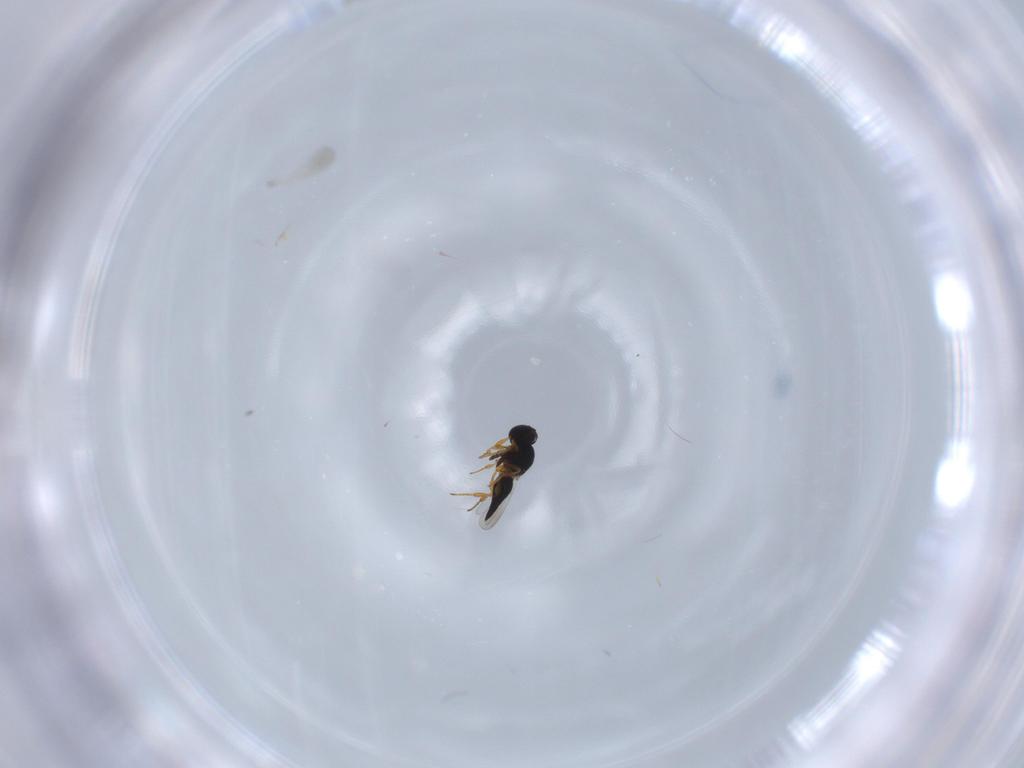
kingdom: Animalia
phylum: Arthropoda
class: Insecta
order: Hymenoptera
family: Platygastridae
